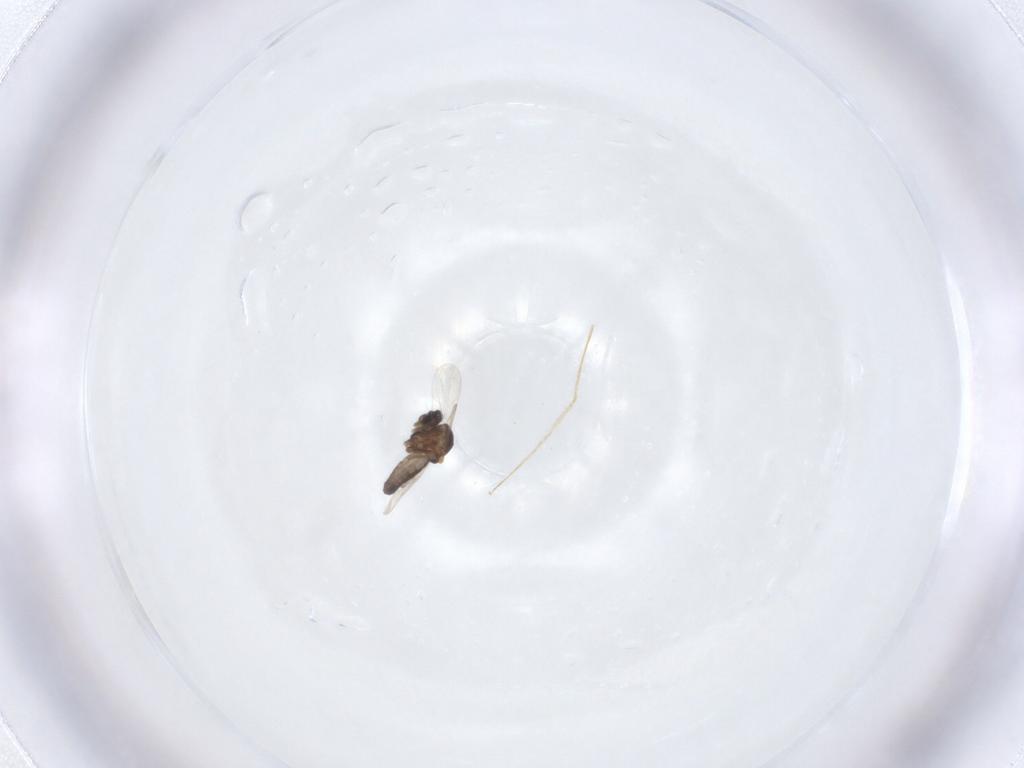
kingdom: Animalia
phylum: Arthropoda
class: Insecta
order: Diptera
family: Ceratopogonidae
